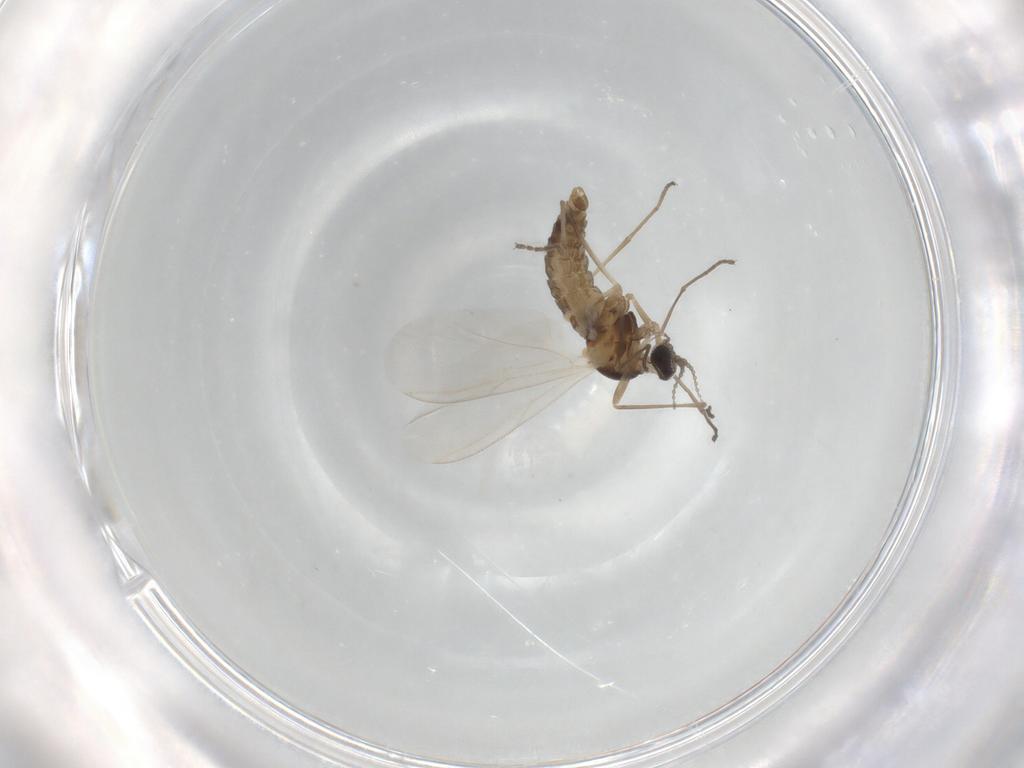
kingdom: Animalia
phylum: Arthropoda
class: Insecta
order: Diptera
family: Cecidomyiidae
